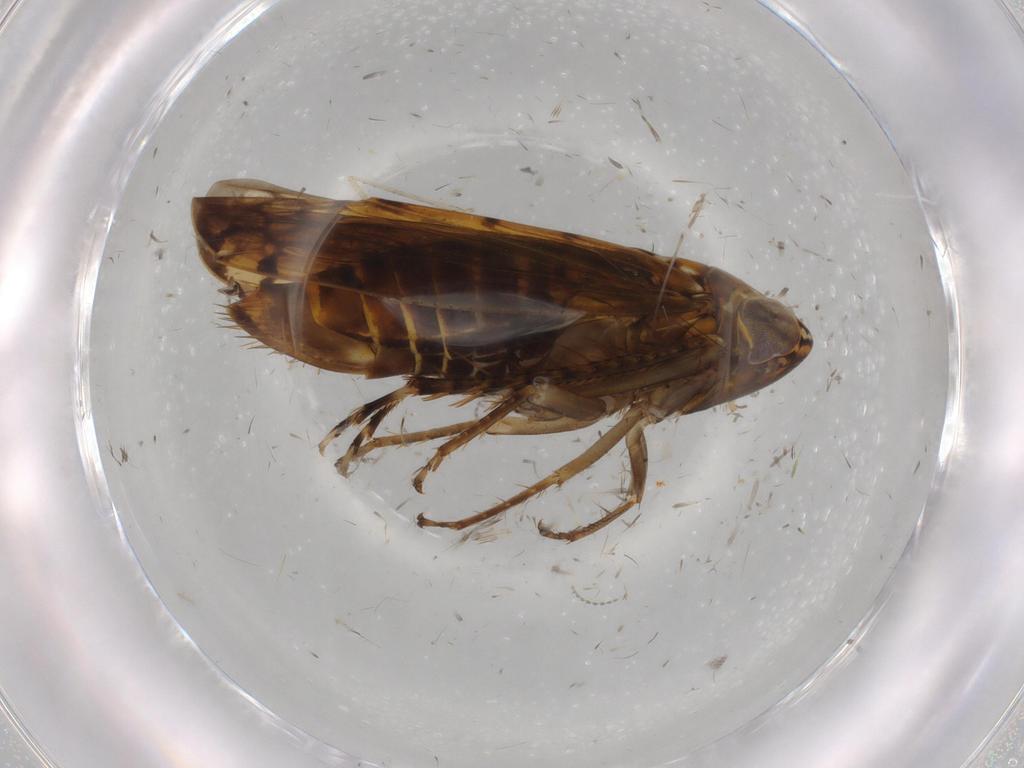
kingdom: Animalia
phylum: Arthropoda
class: Insecta
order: Hemiptera
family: Cicadellidae
